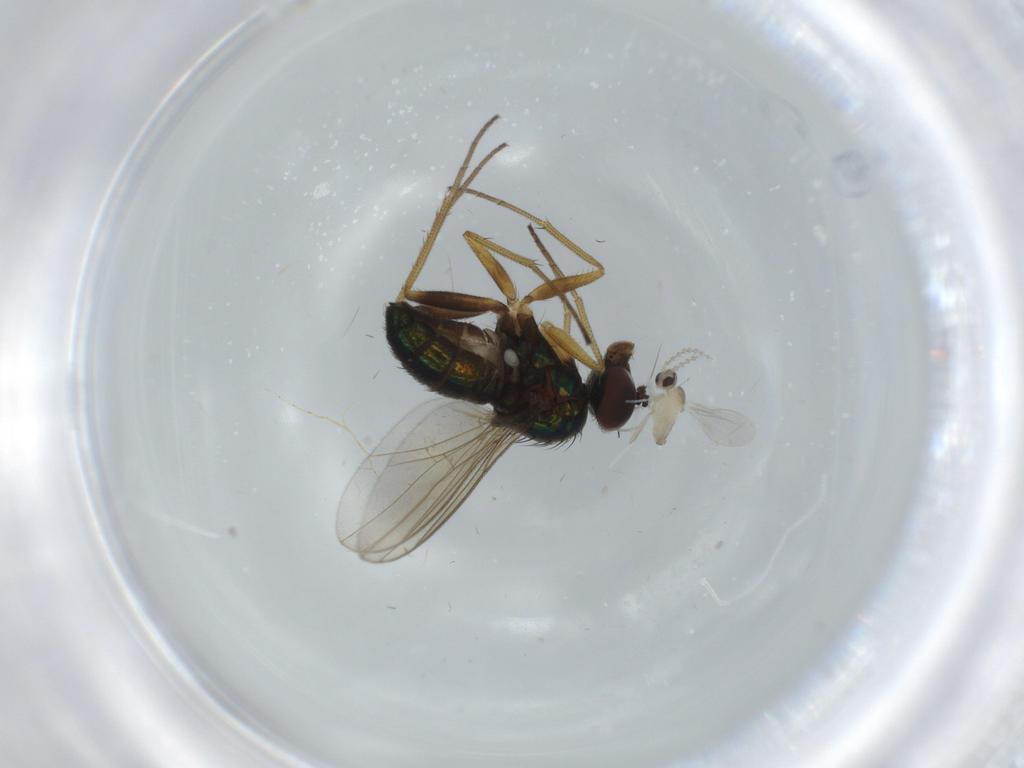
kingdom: Animalia
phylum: Arthropoda
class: Insecta
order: Diptera
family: Dolichopodidae
